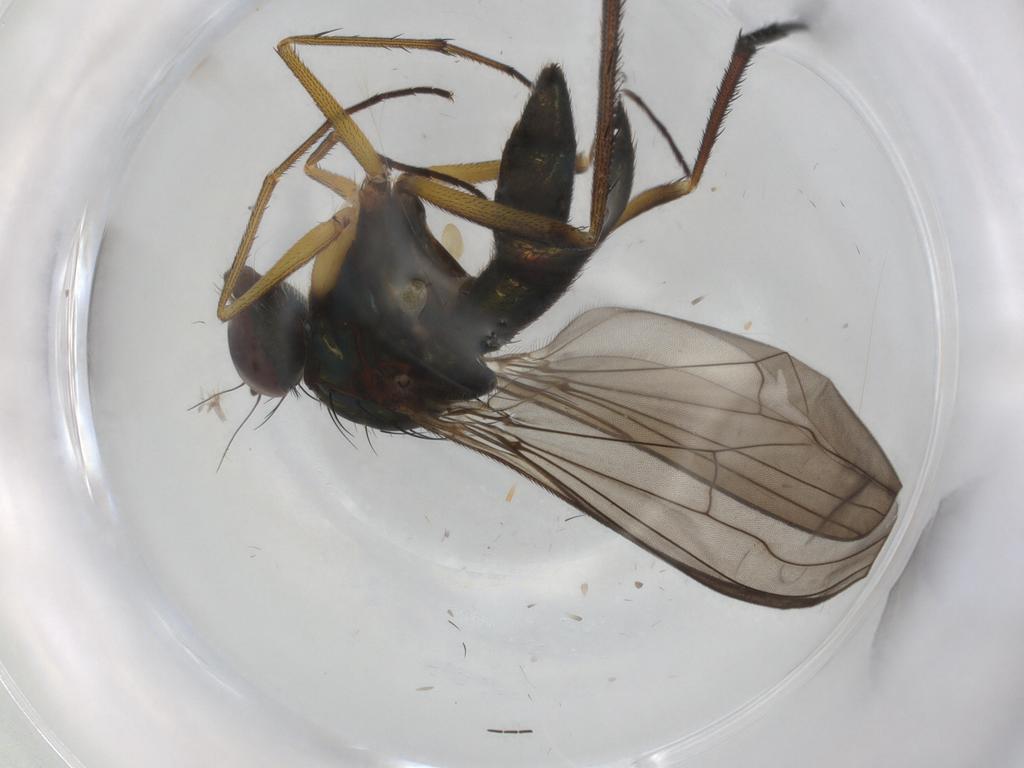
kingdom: Animalia
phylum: Arthropoda
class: Insecta
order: Diptera
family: Dolichopodidae
